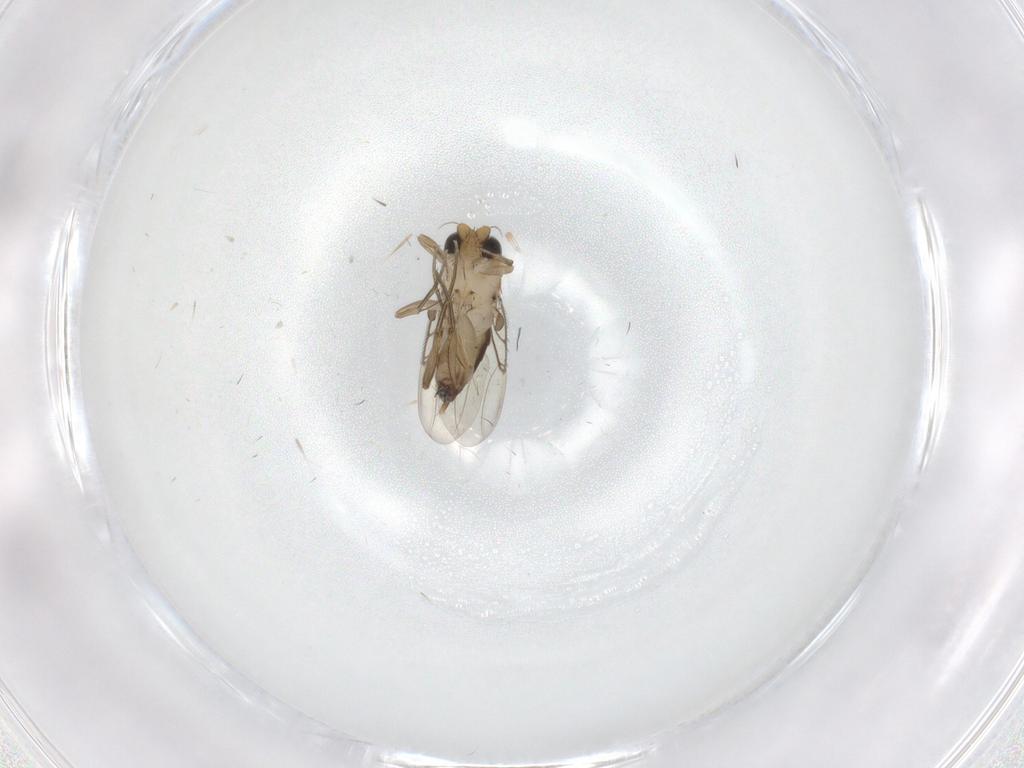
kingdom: Animalia
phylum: Arthropoda
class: Insecta
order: Diptera
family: Phoridae
